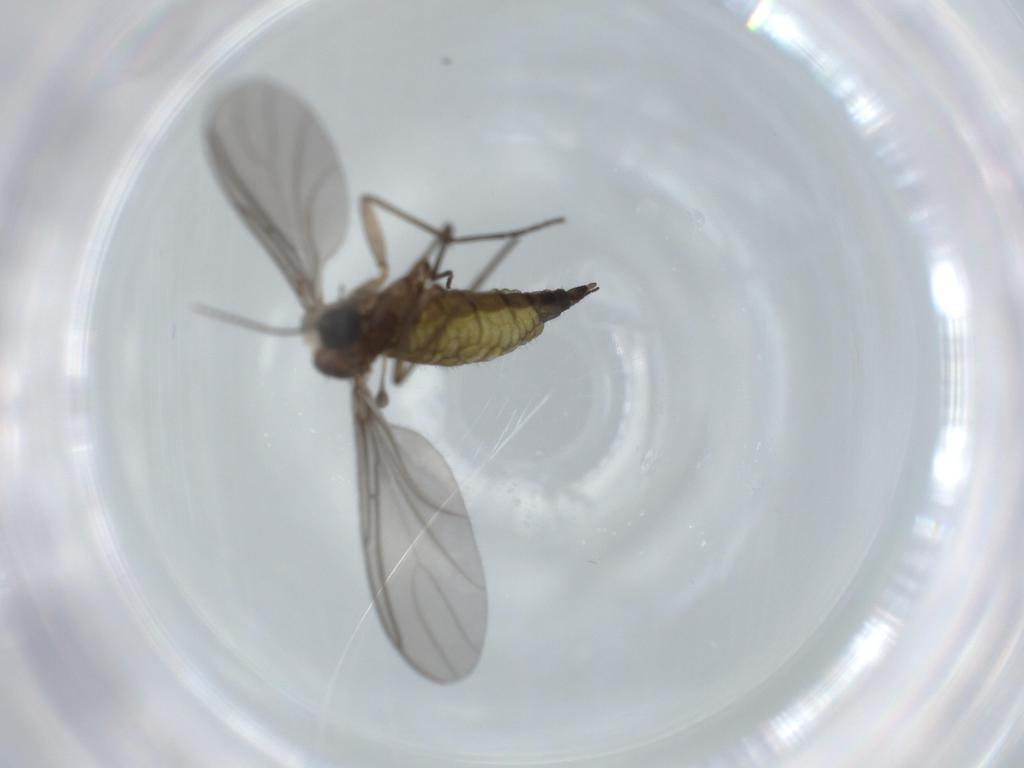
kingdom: Animalia
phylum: Arthropoda
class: Insecta
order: Diptera
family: Sciaridae
